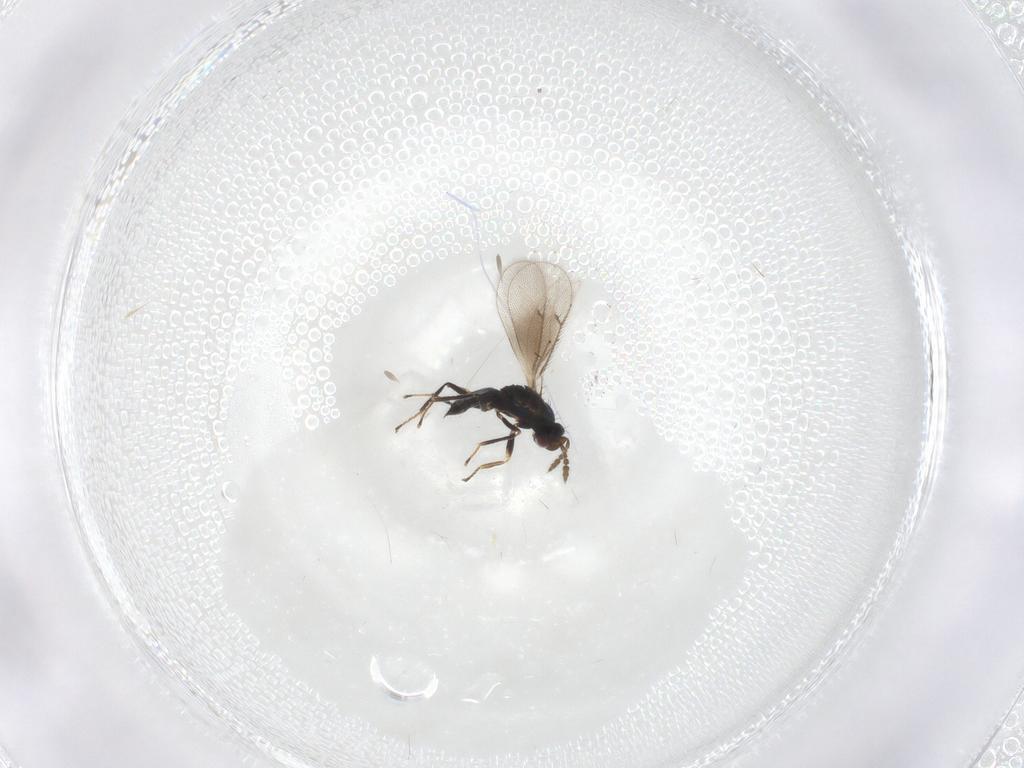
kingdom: Animalia
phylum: Arthropoda
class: Insecta
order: Hymenoptera
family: Eulophidae
